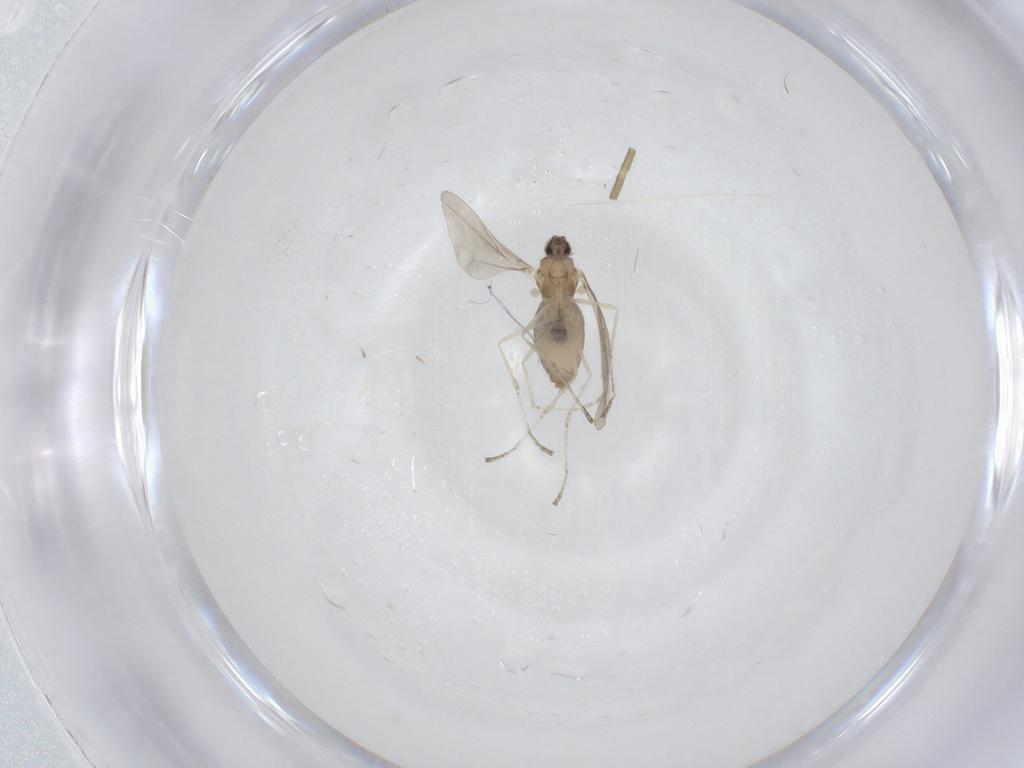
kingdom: Animalia
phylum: Arthropoda
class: Insecta
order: Diptera
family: Cecidomyiidae
